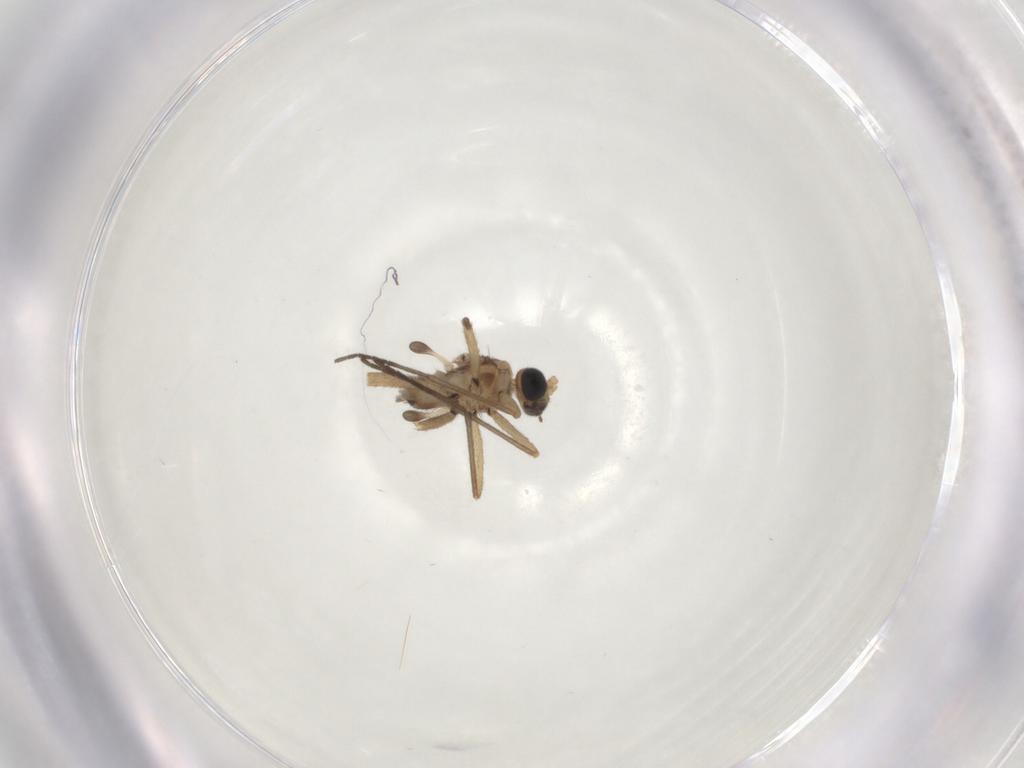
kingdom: Animalia
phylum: Arthropoda
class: Insecta
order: Diptera
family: Sciaridae
